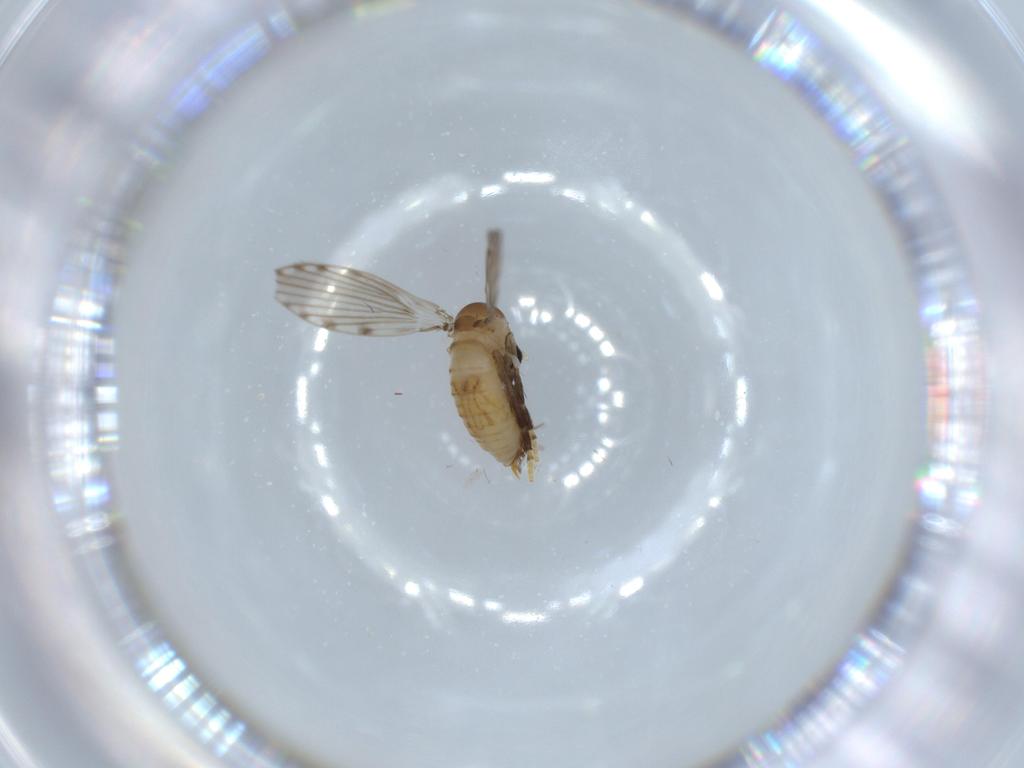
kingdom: Animalia
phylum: Arthropoda
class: Insecta
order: Diptera
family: Psychodidae
